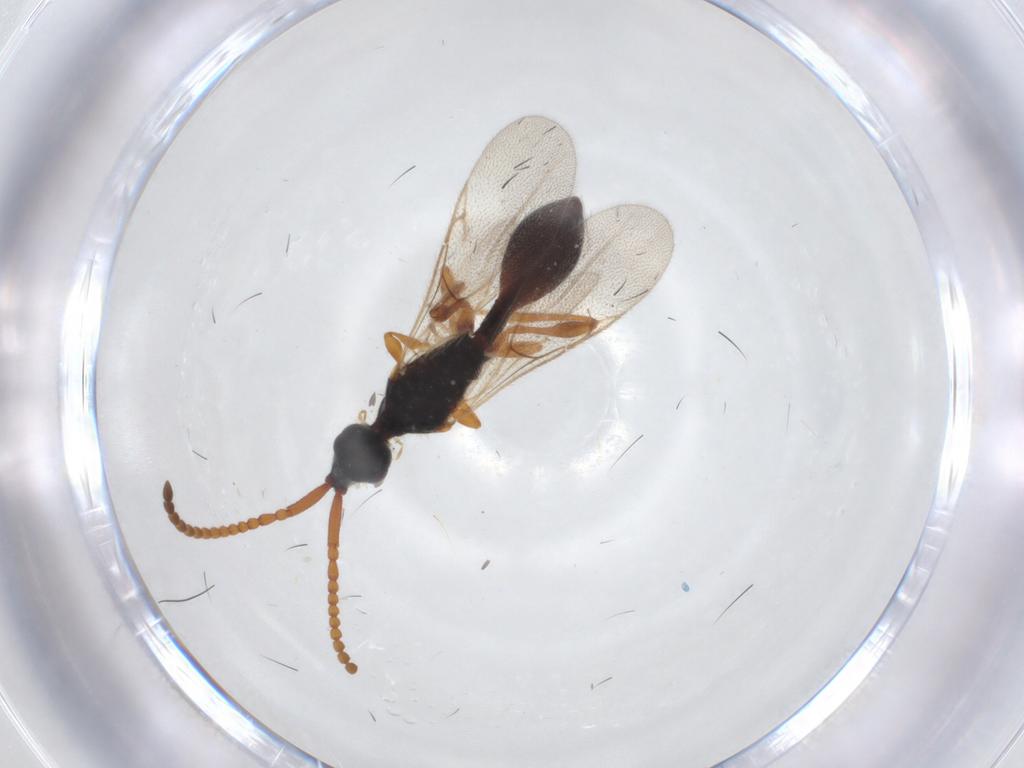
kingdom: Animalia
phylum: Arthropoda
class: Insecta
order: Hymenoptera
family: Diapriidae
